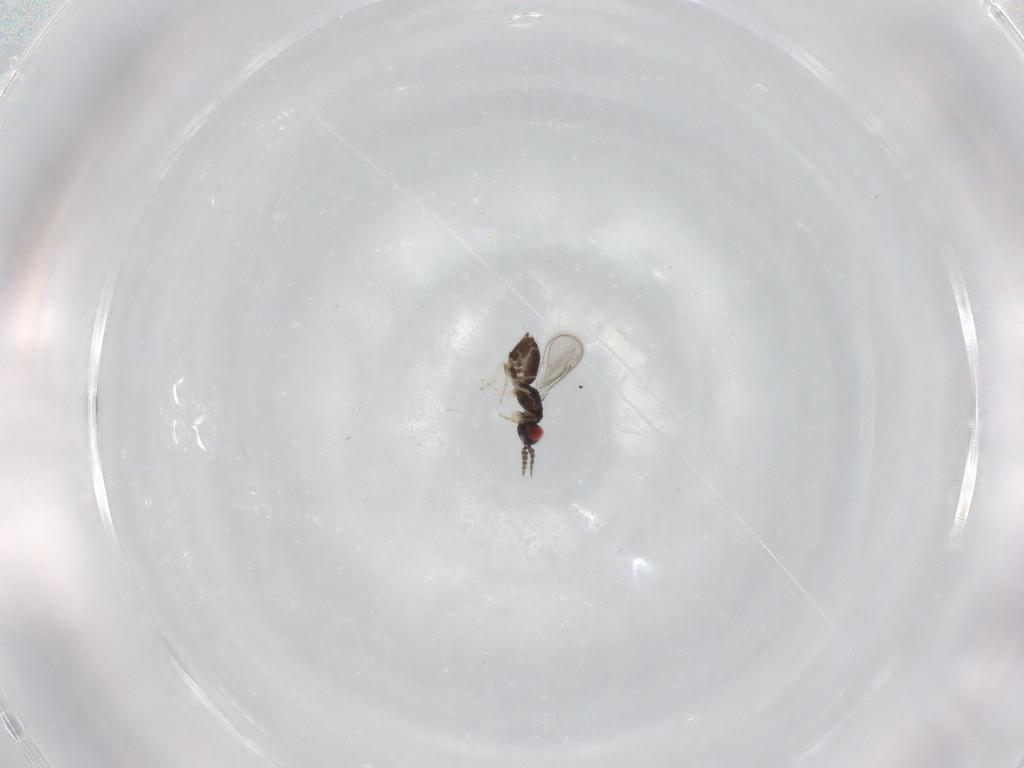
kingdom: Animalia
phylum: Arthropoda
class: Insecta
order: Hymenoptera
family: Eulophidae
